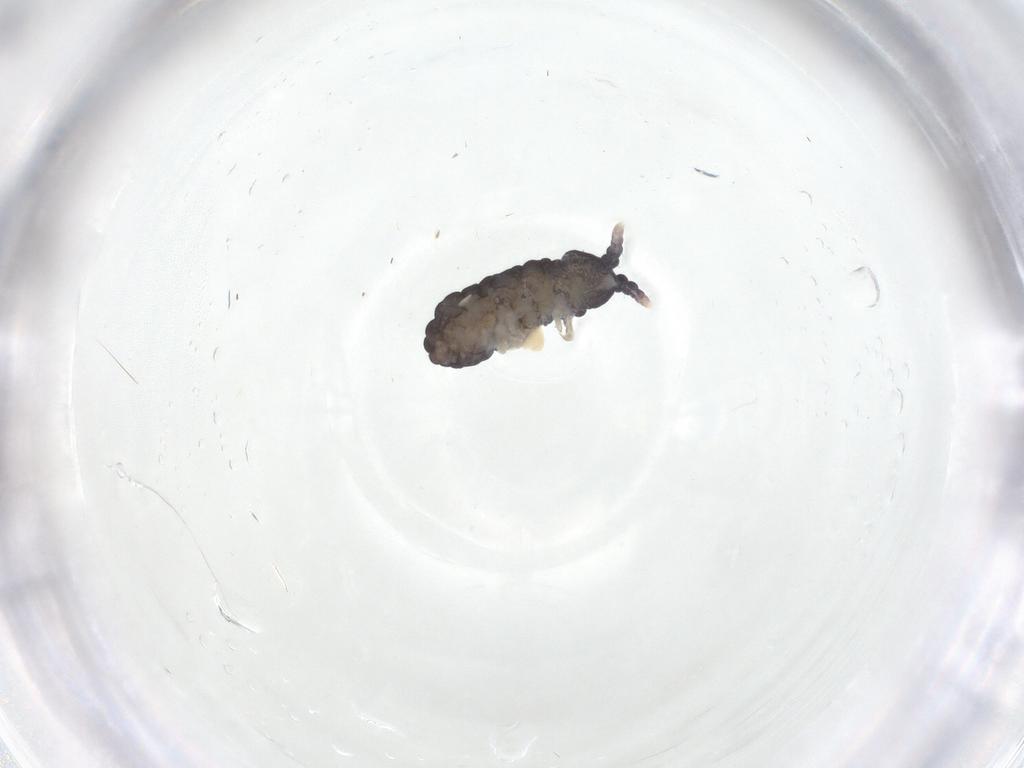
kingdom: Animalia
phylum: Arthropoda
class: Collembola
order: Poduromorpha
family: Neanuridae
